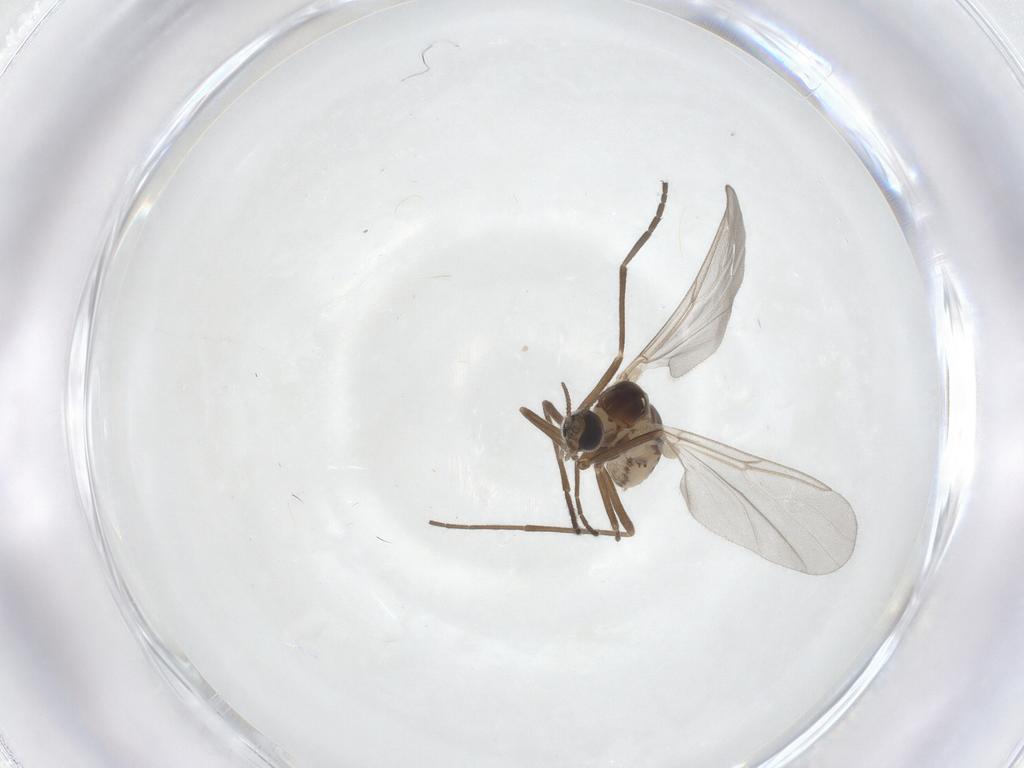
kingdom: Animalia
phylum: Arthropoda
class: Insecta
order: Diptera
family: Cecidomyiidae
